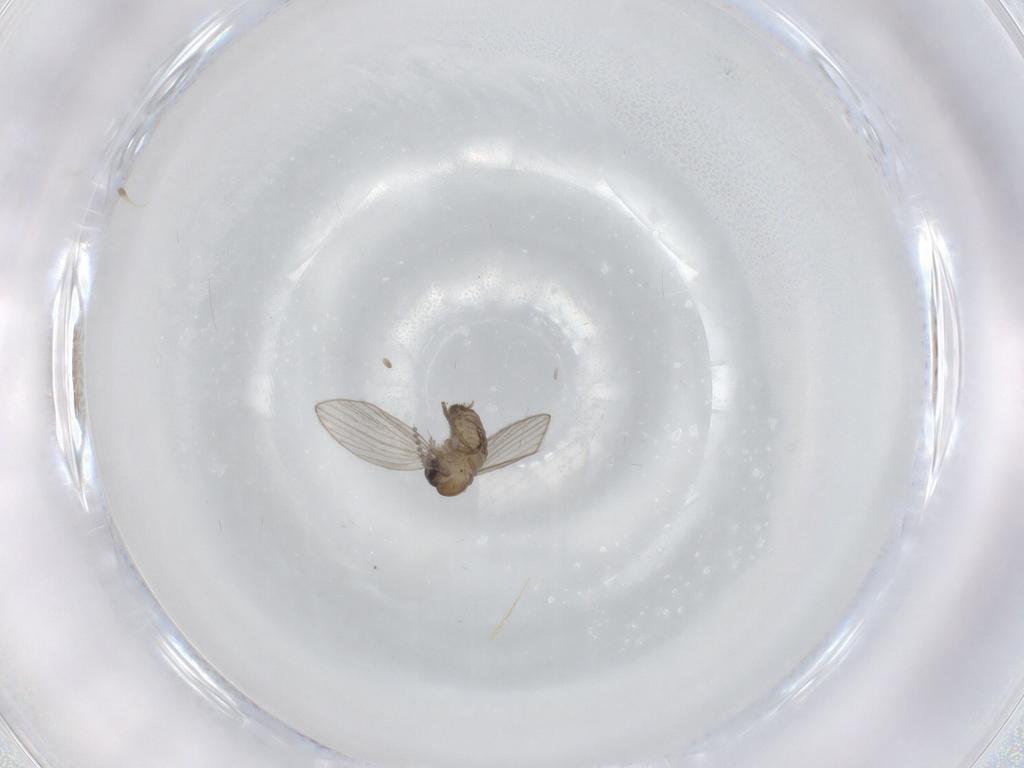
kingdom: Animalia
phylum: Arthropoda
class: Insecta
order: Diptera
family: Psychodidae
